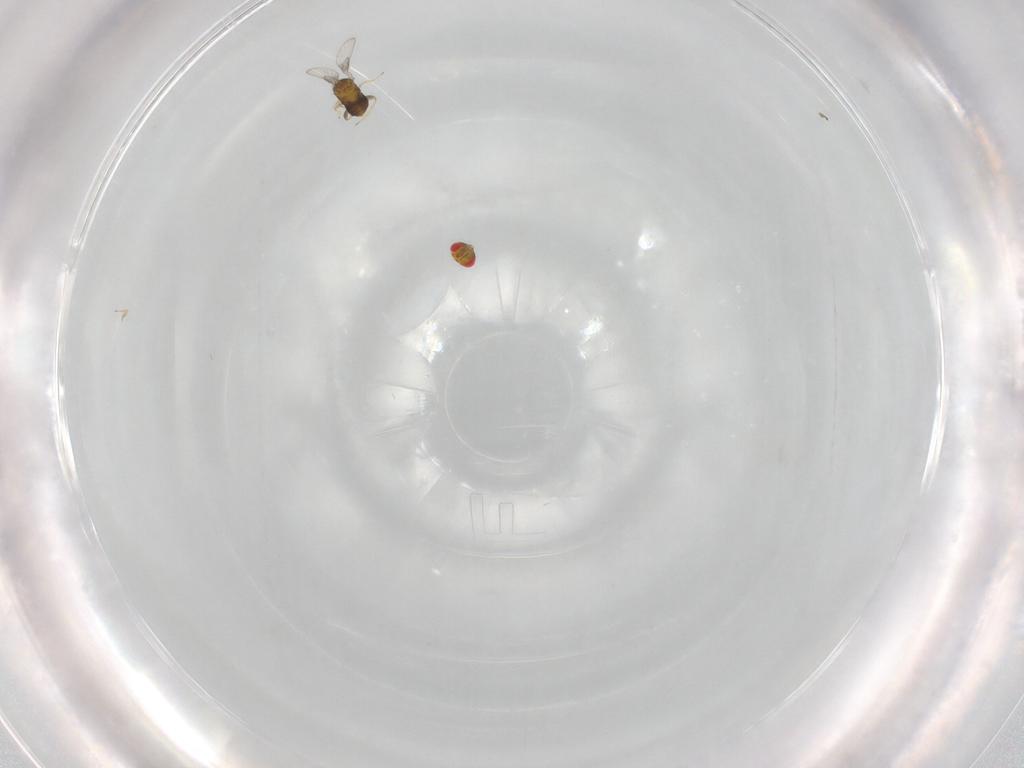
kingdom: Animalia
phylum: Arthropoda
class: Insecta
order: Hymenoptera
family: Trichogrammatidae
